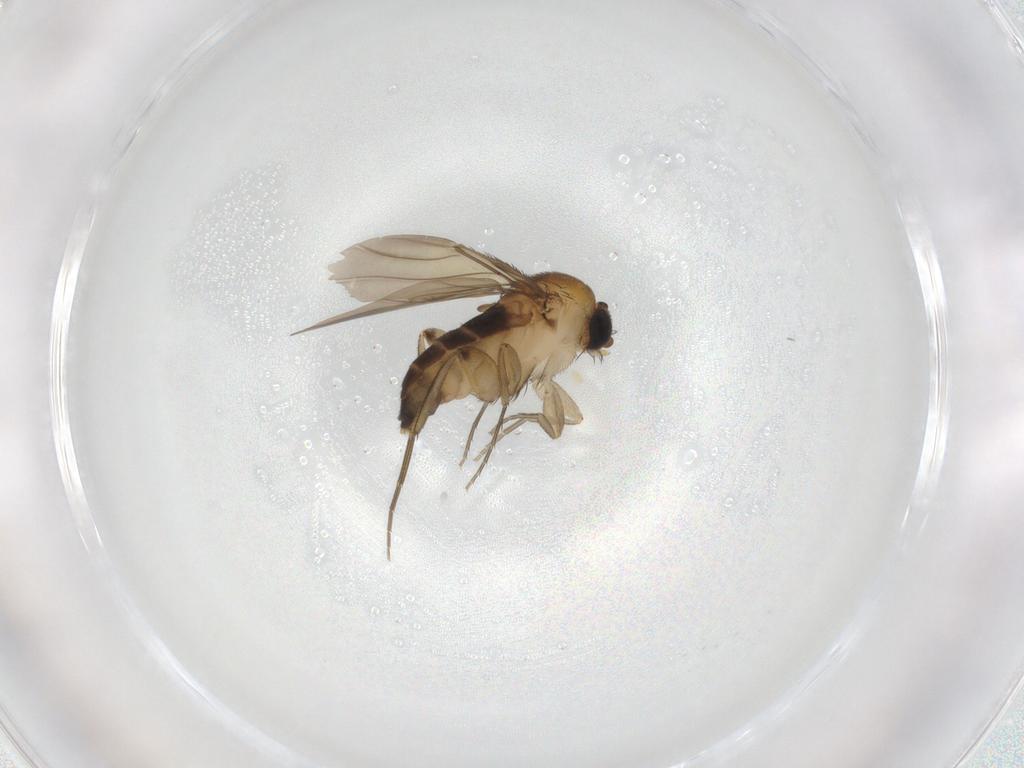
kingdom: Animalia
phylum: Arthropoda
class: Insecta
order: Diptera
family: Phoridae
